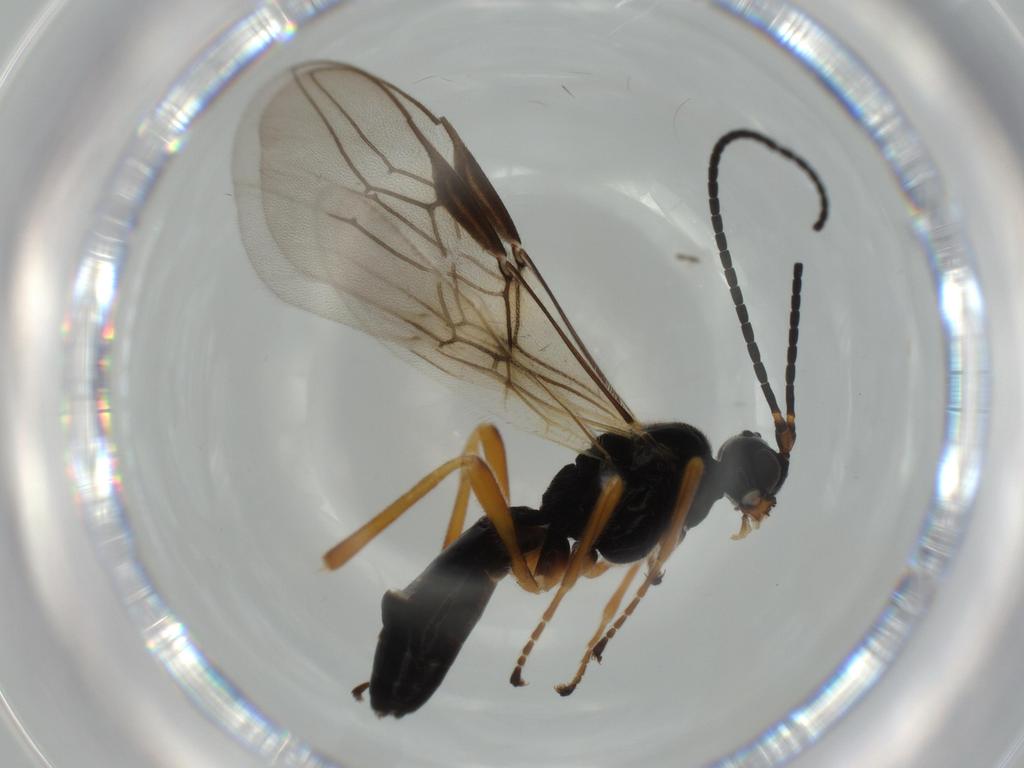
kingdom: Animalia
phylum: Arthropoda
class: Insecta
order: Hymenoptera
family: Braconidae
